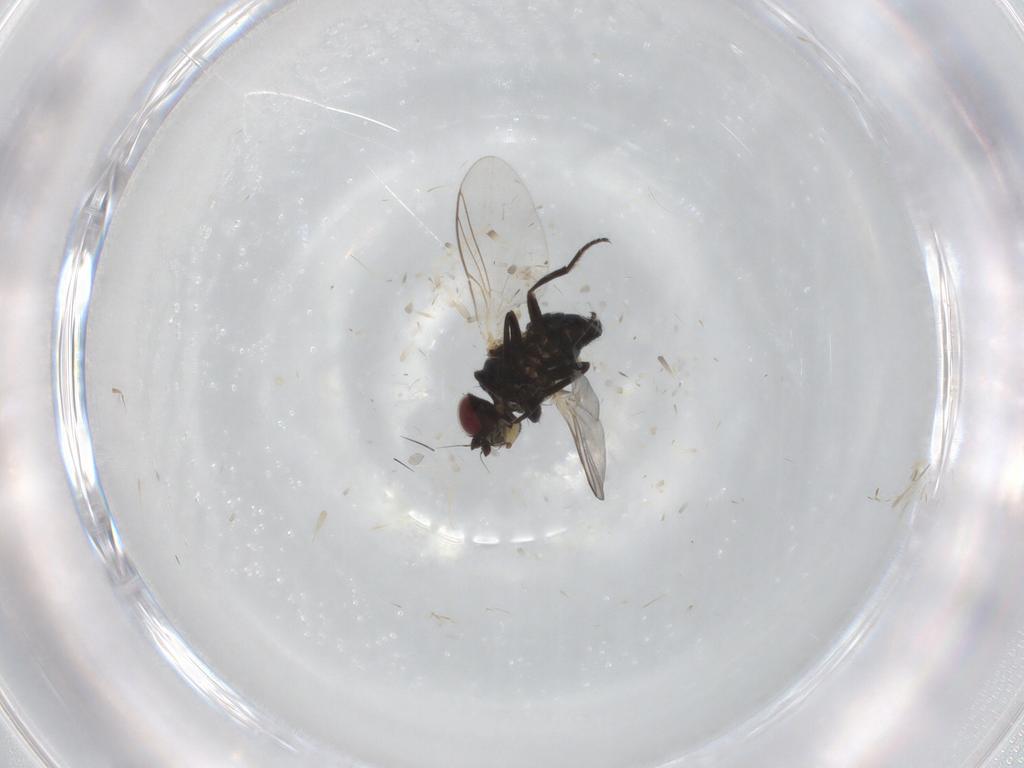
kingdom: Animalia
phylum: Arthropoda
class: Insecta
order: Diptera
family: Agromyzidae
